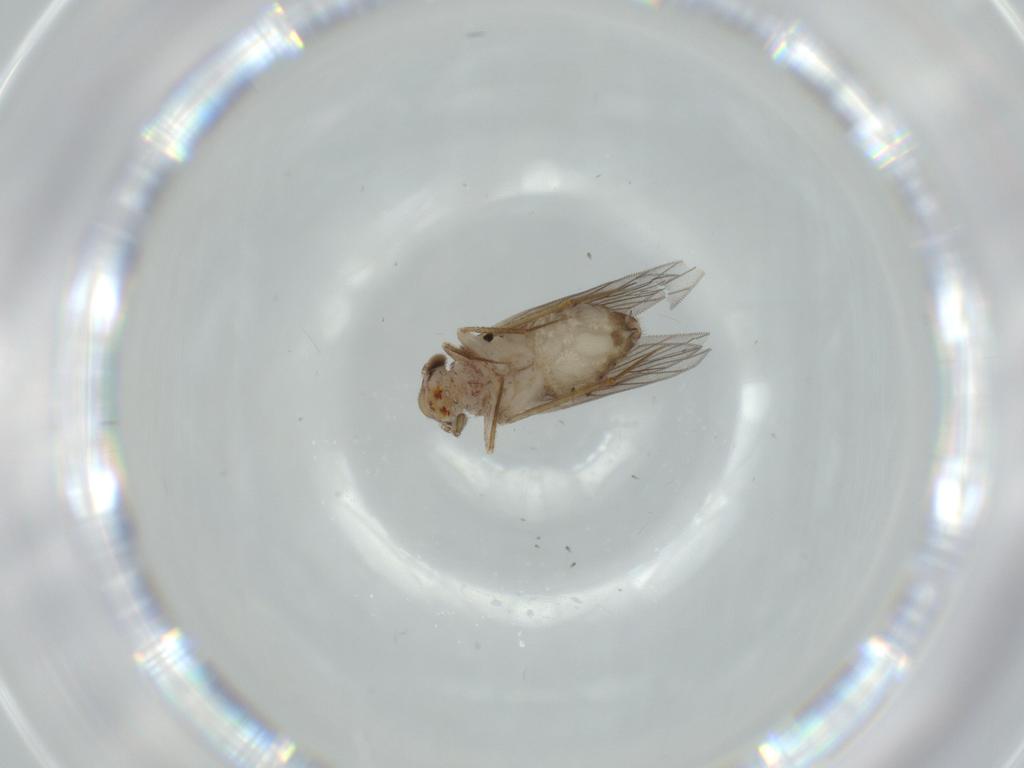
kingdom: Animalia
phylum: Arthropoda
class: Insecta
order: Psocodea
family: Lepidopsocidae
